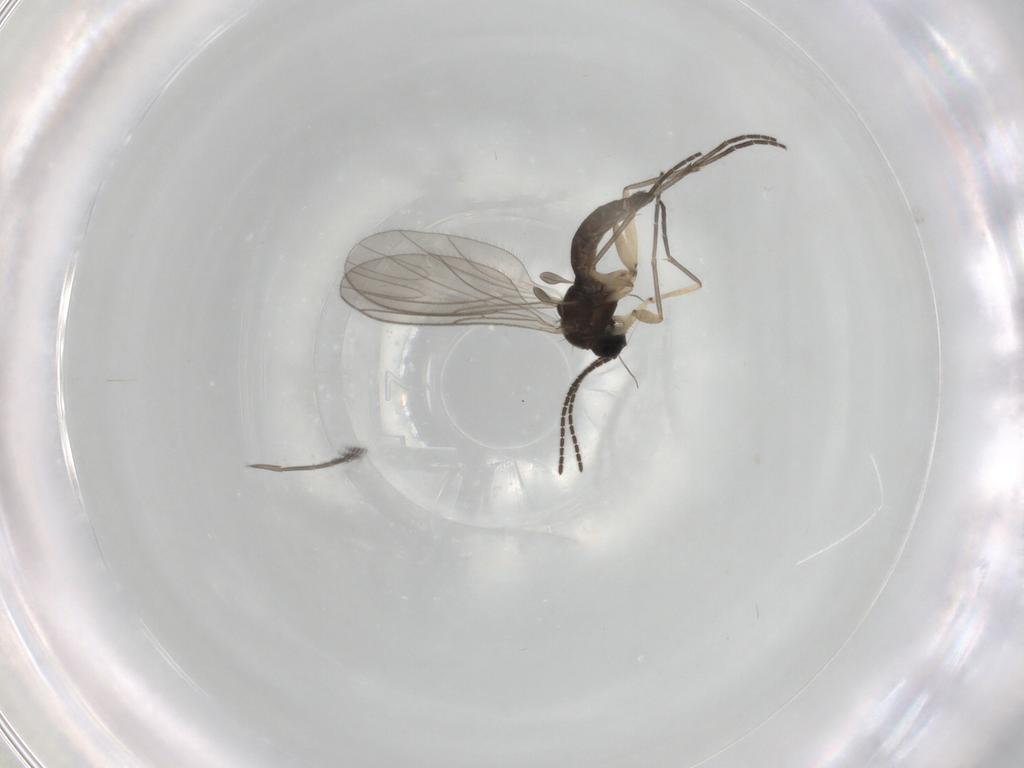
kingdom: Animalia
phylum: Arthropoda
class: Insecta
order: Diptera
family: Sciaridae
